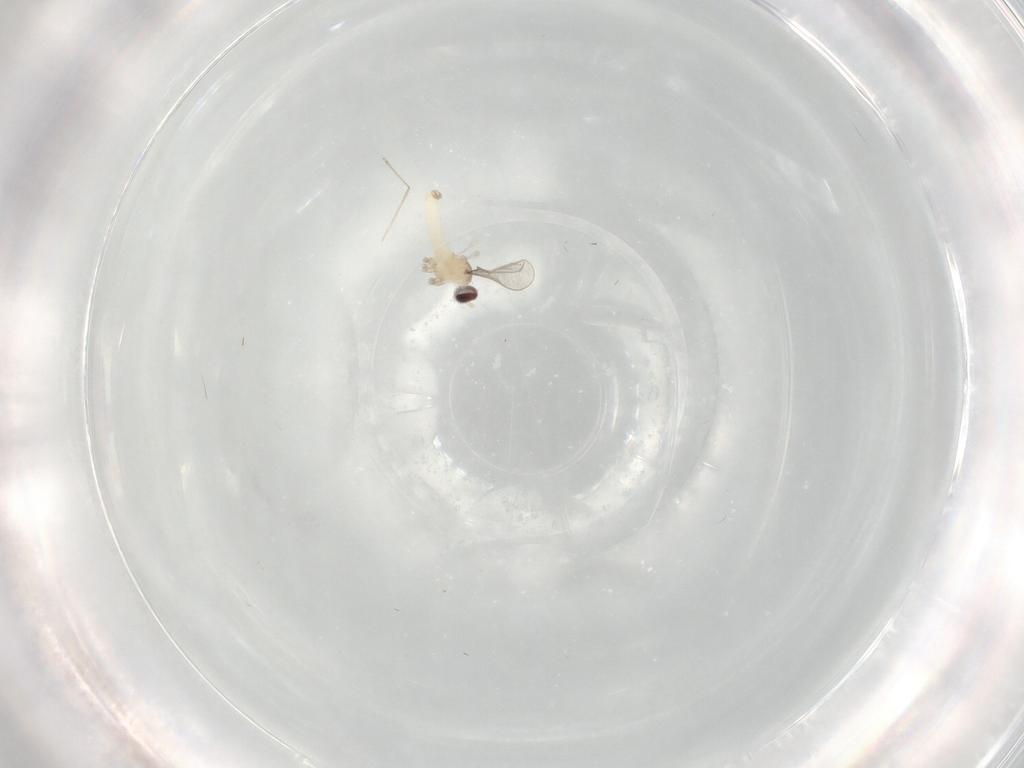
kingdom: Animalia
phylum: Arthropoda
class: Insecta
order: Diptera
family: Cecidomyiidae
